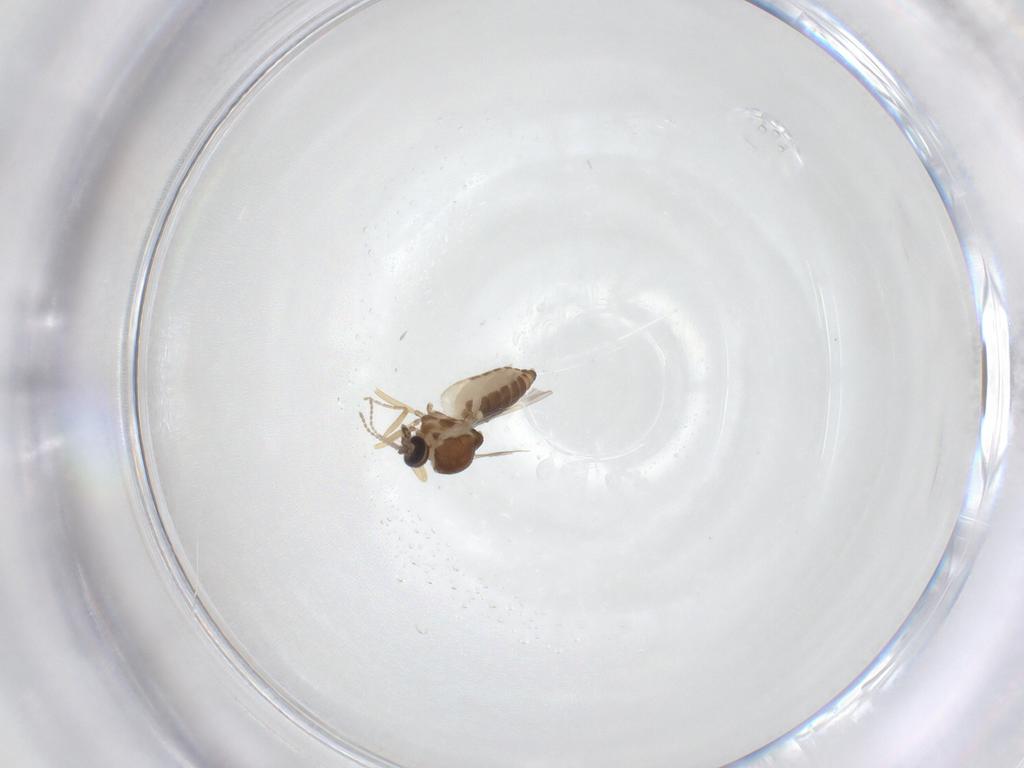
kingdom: Animalia
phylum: Arthropoda
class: Insecta
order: Diptera
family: Ceratopogonidae
